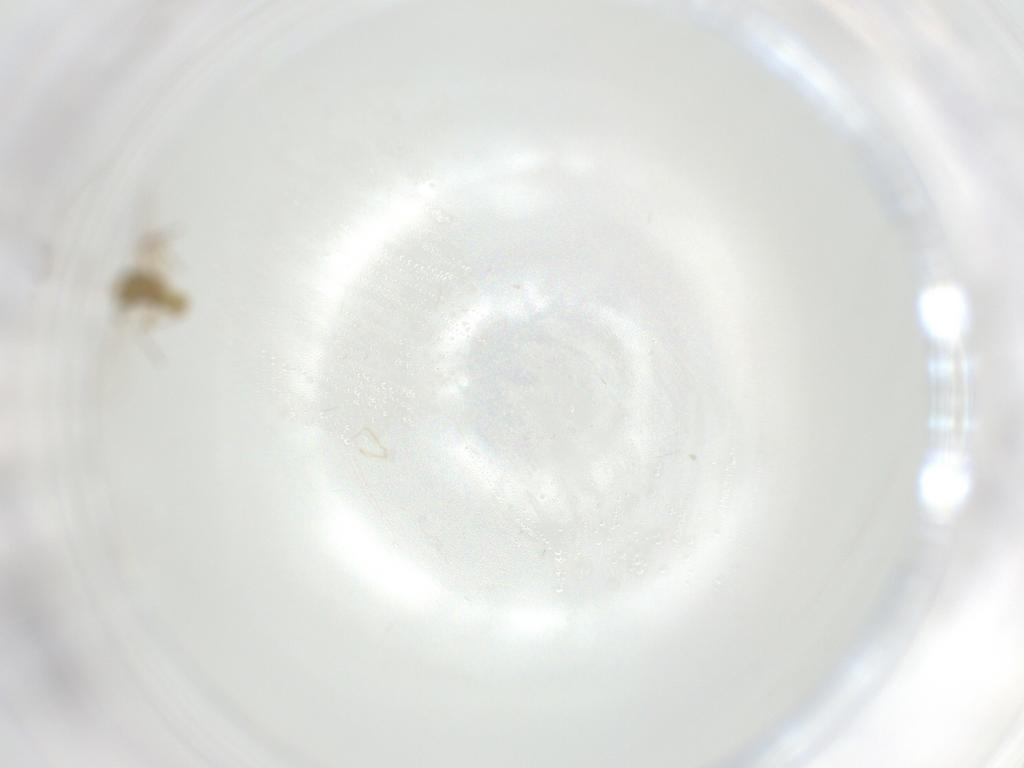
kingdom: Animalia
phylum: Arthropoda
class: Insecta
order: Diptera
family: Chironomidae
